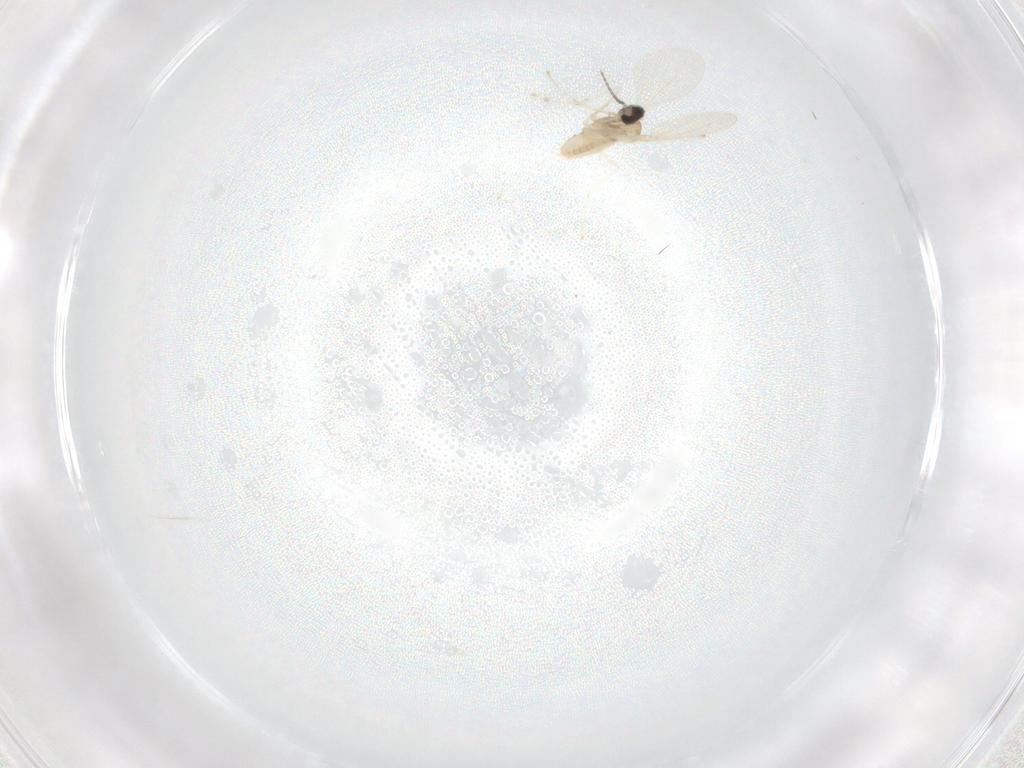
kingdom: Animalia
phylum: Arthropoda
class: Insecta
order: Diptera
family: Cecidomyiidae
